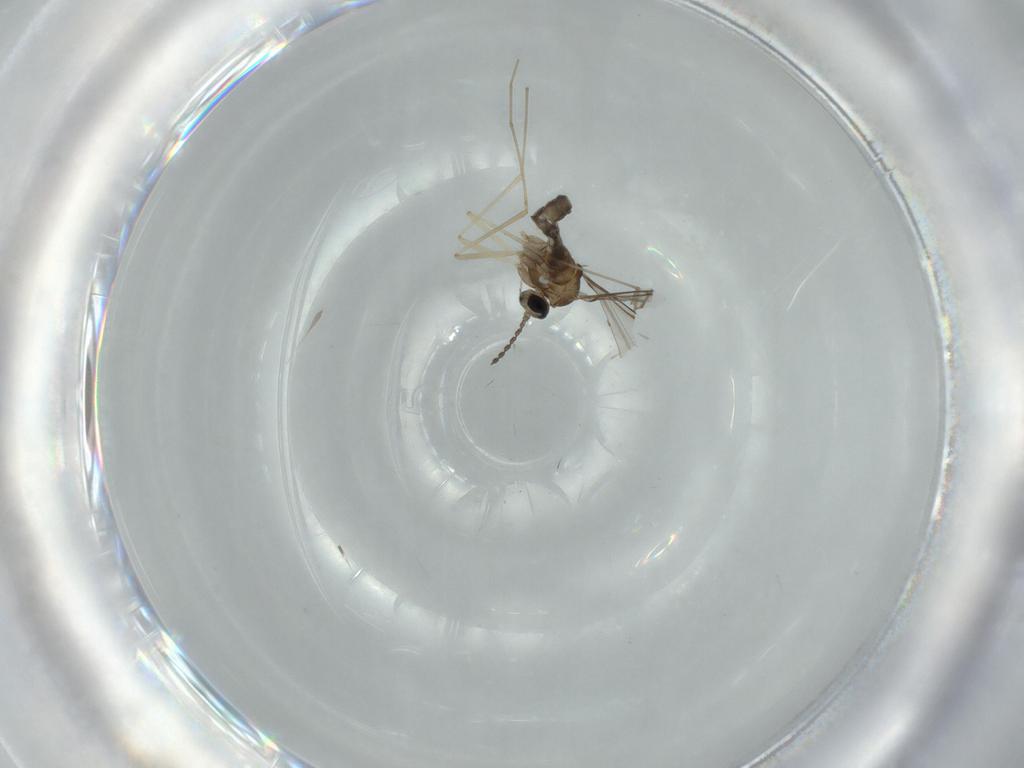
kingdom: Animalia
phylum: Arthropoda
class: Insecta
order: Diptera
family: Cecidomyiidae
